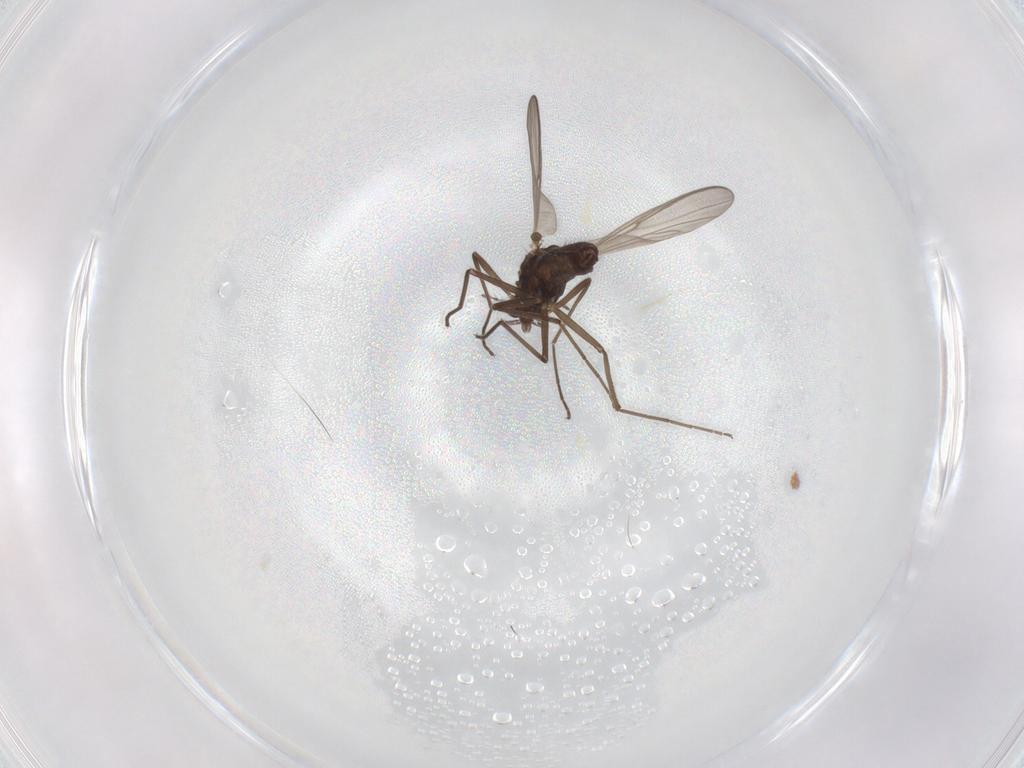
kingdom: Animalia
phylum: Arthropoda
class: Insecta
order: Diptera
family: Chironomidae
